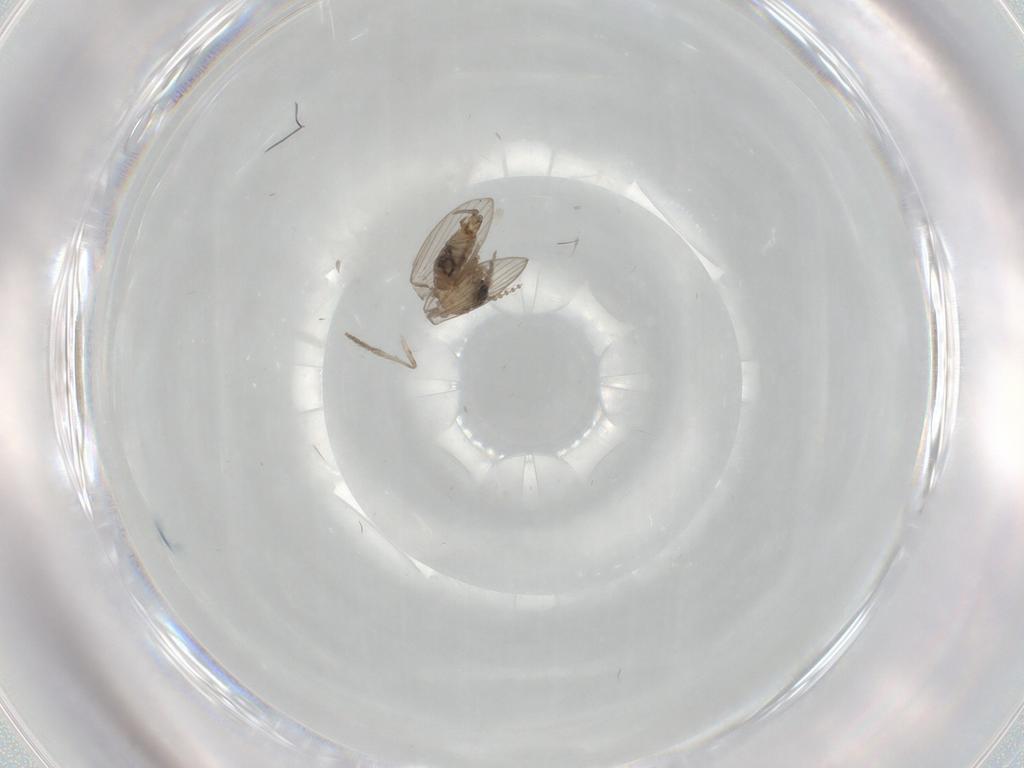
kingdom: Animalia
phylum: Arthropoda
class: Insecta
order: Diptera
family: Psychodidae
